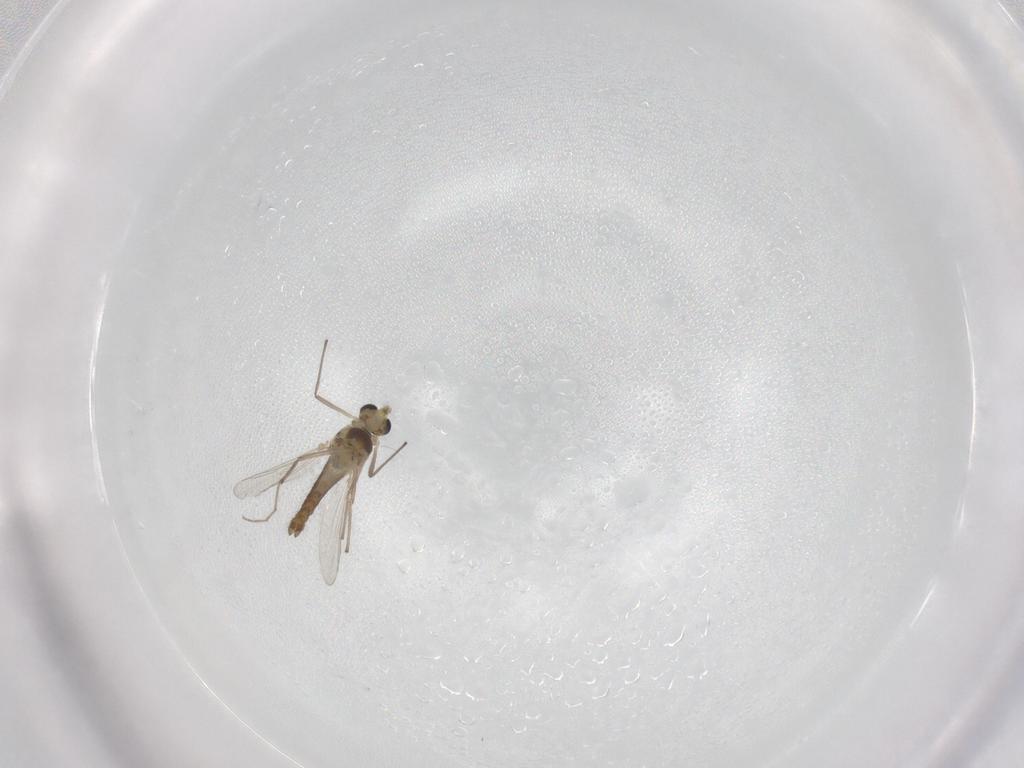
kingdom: Animalia
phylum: Arthropoda
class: Insecta
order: Diptera
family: Chironomidae
